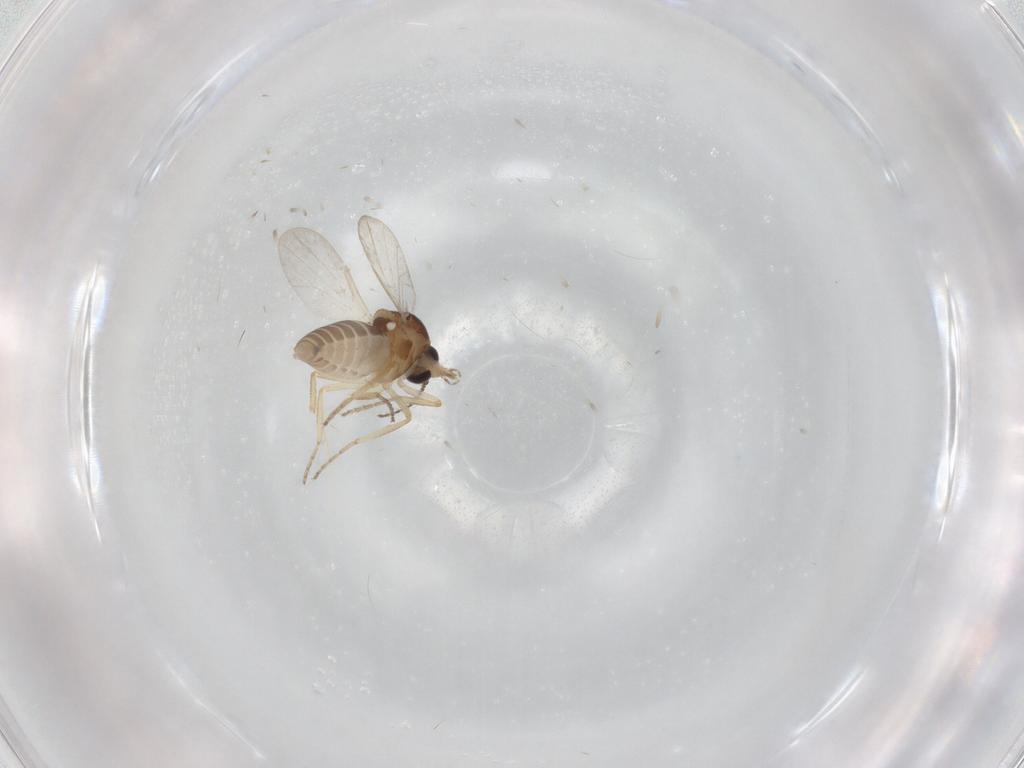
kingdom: Animalia
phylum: Arthropoda
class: Insecta
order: Diptera
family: Ceratopogonidae
